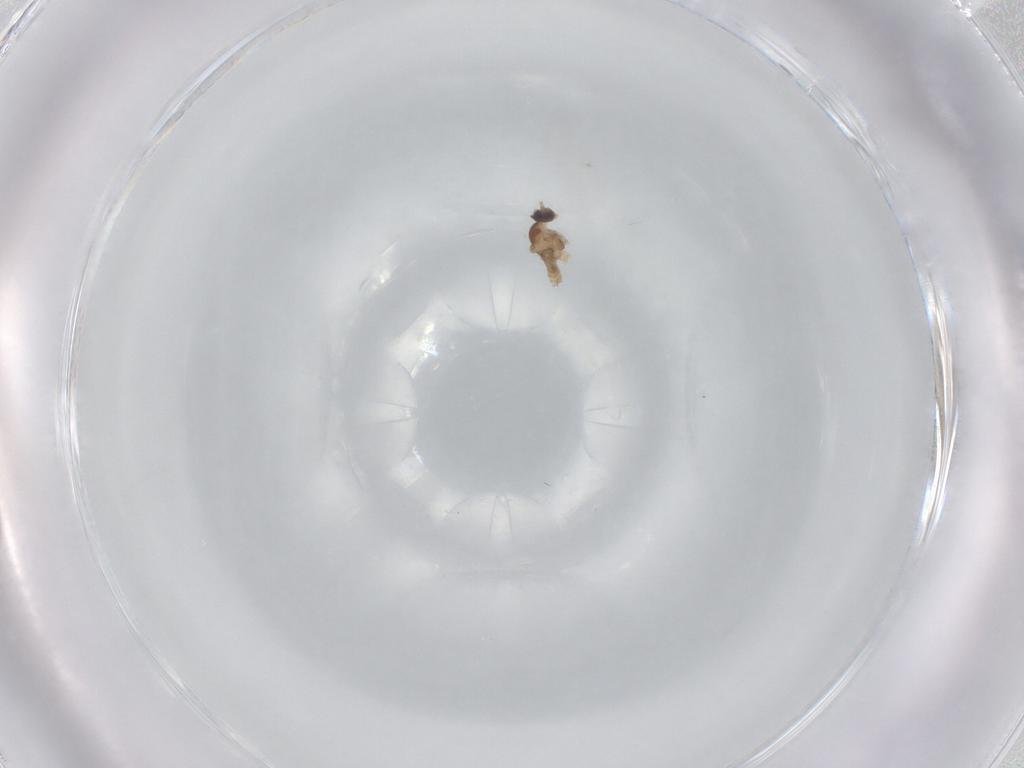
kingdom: Animalia
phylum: Arthropoda
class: Insecta
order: Diptera
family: Cecidomyiidae
